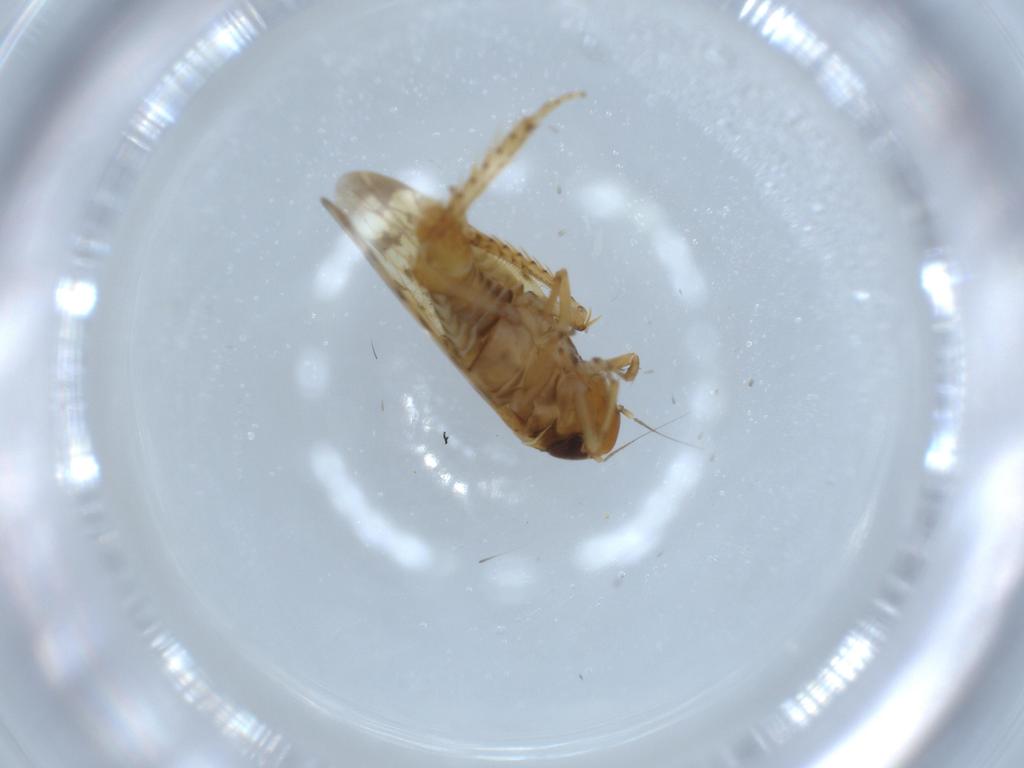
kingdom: Animalia
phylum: Arthropoda
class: Insecta
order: Hemiptera
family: Cicadellidae
